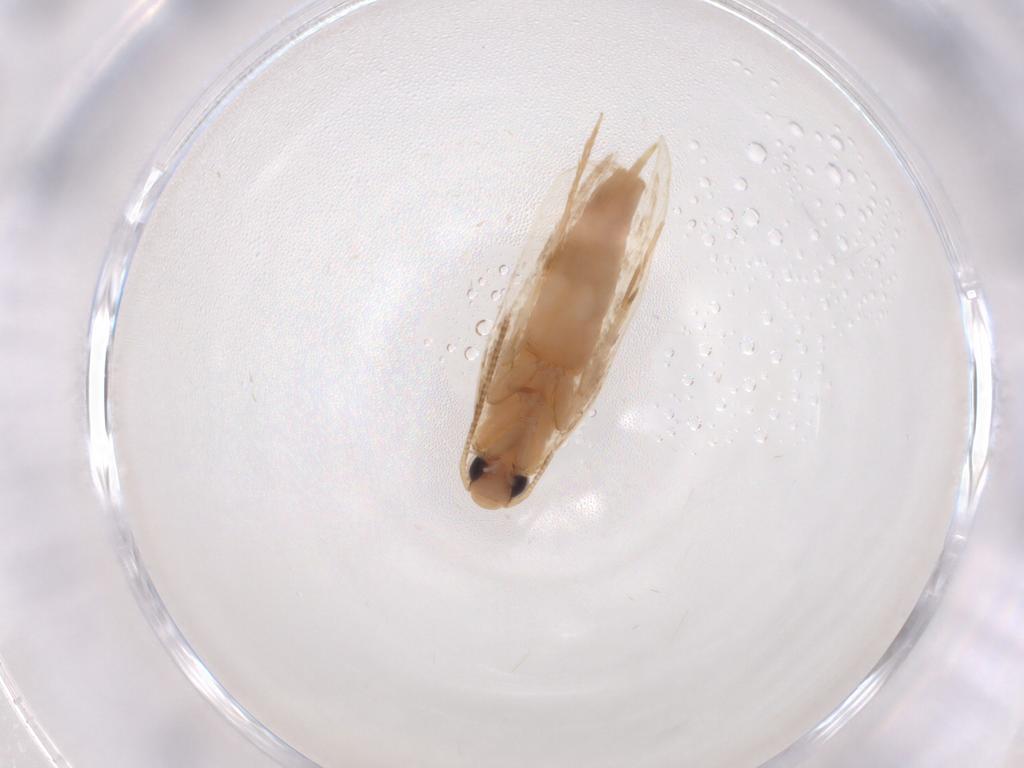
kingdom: Animalia
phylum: Arthropoda
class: Insecta
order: Lepidoptera
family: Tineidae
